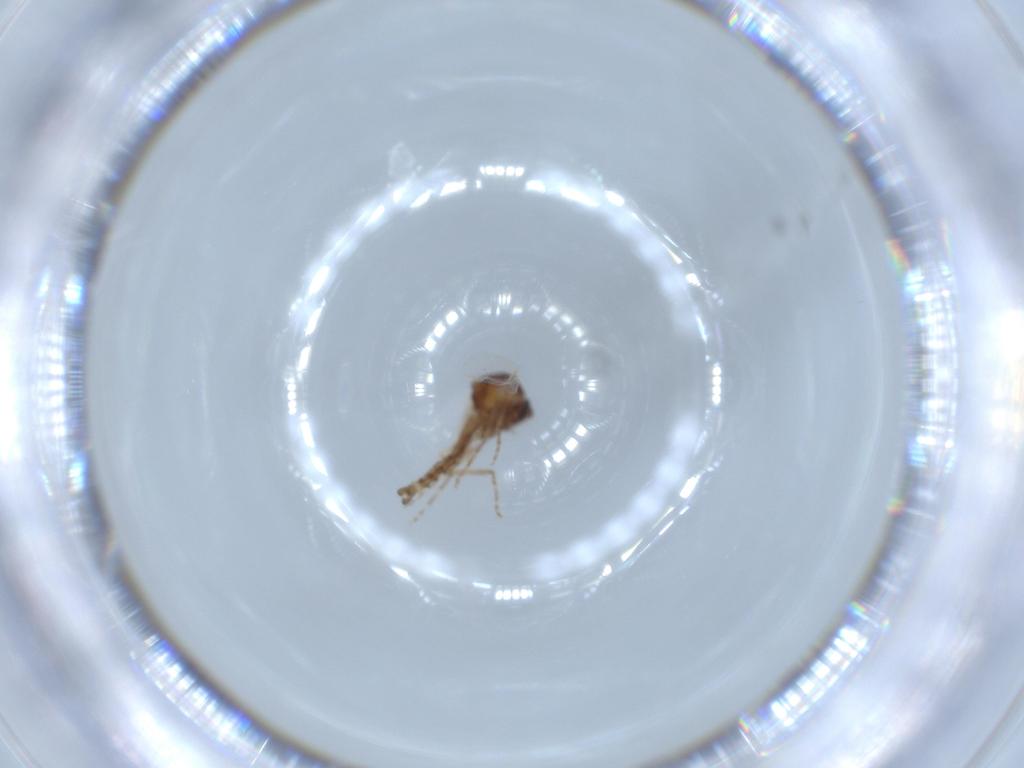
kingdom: Animalia
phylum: Arthropoda
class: Insecta
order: Diptera
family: Ceratopogonidae
